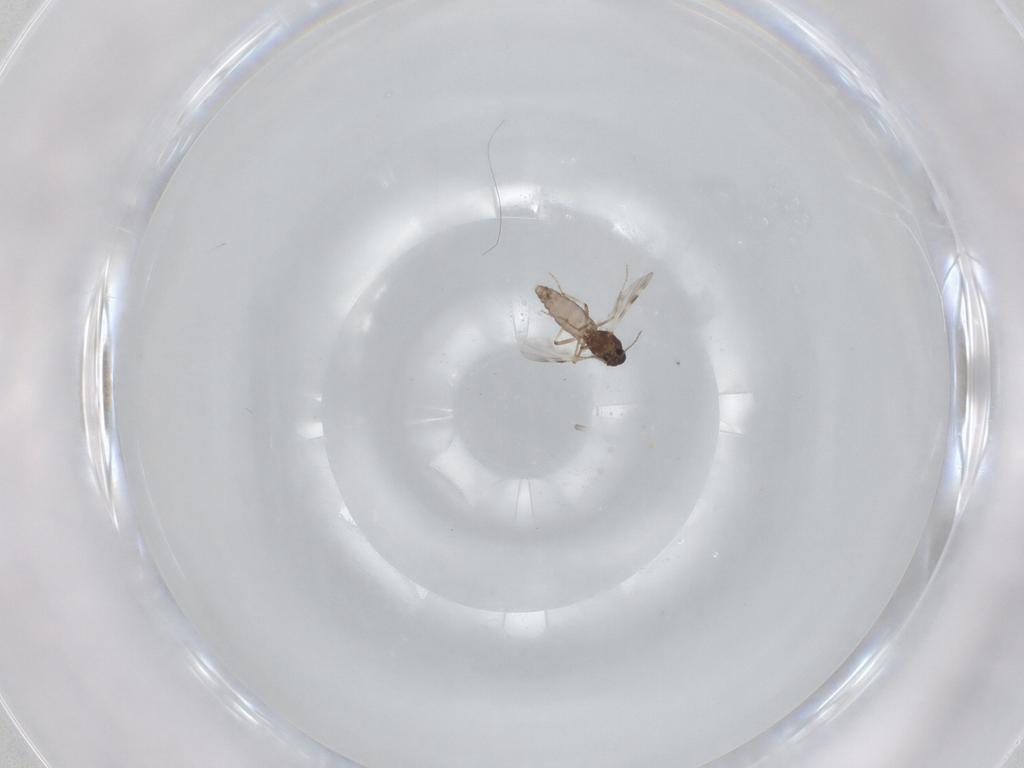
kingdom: Animalia
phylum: Arthropoda
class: Insecta
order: Diptera
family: Phoridae
